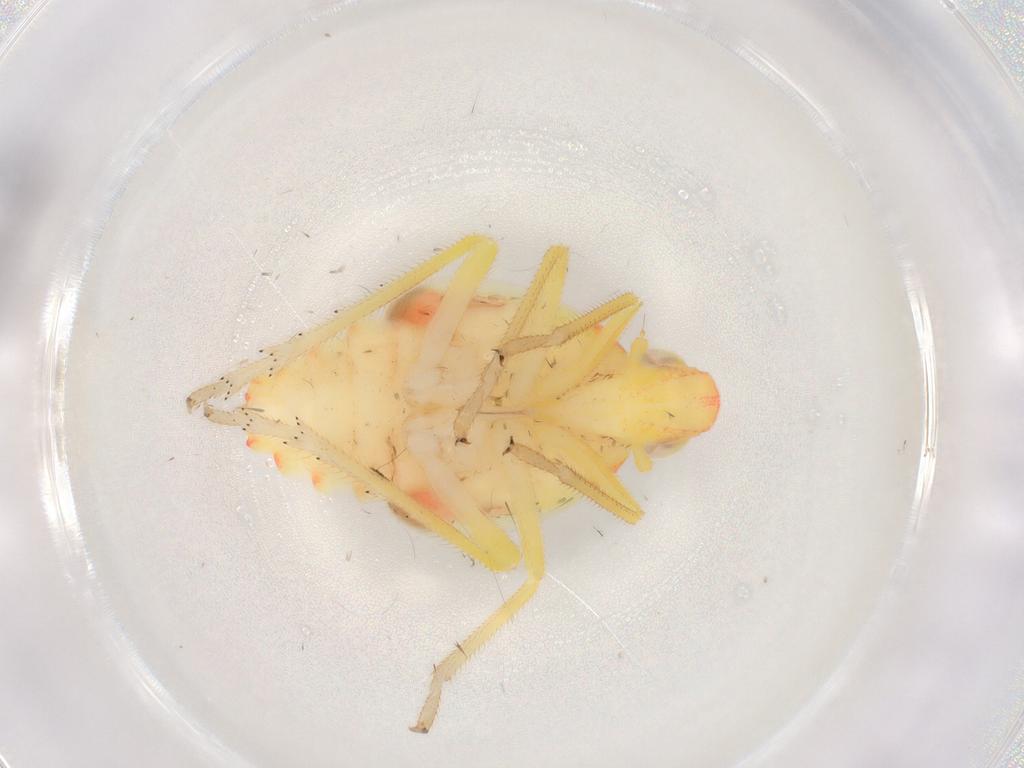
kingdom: Animalia
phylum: Arthropoda
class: Insecta
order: Hemiptera
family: Tropiduchidae
